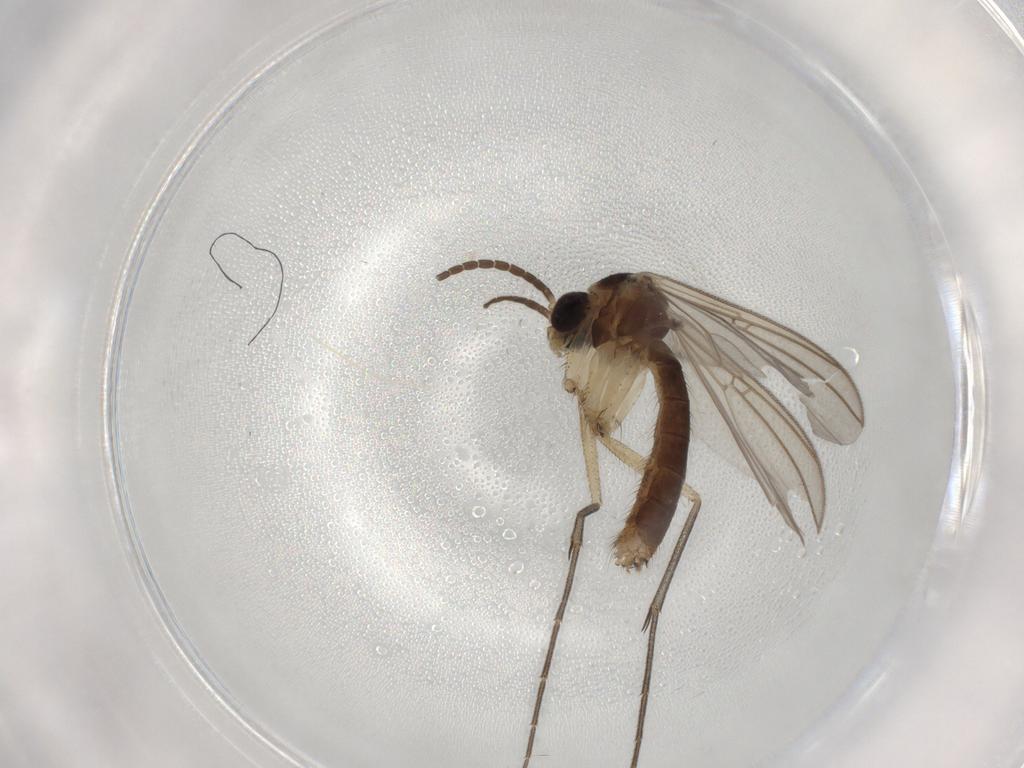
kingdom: Animalia
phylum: Arthropoda
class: Insecta
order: Diptera
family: Mycetophilidae
